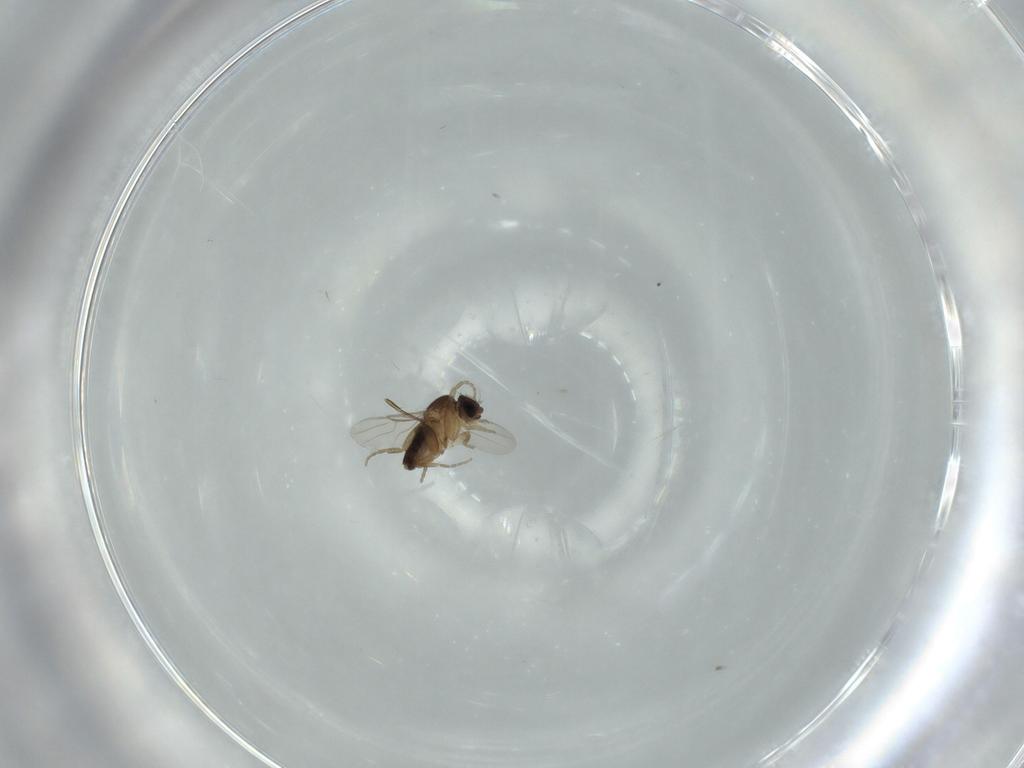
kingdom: Animalia
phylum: Arthropoda
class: Insecta
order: Diptera
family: Phoridae
